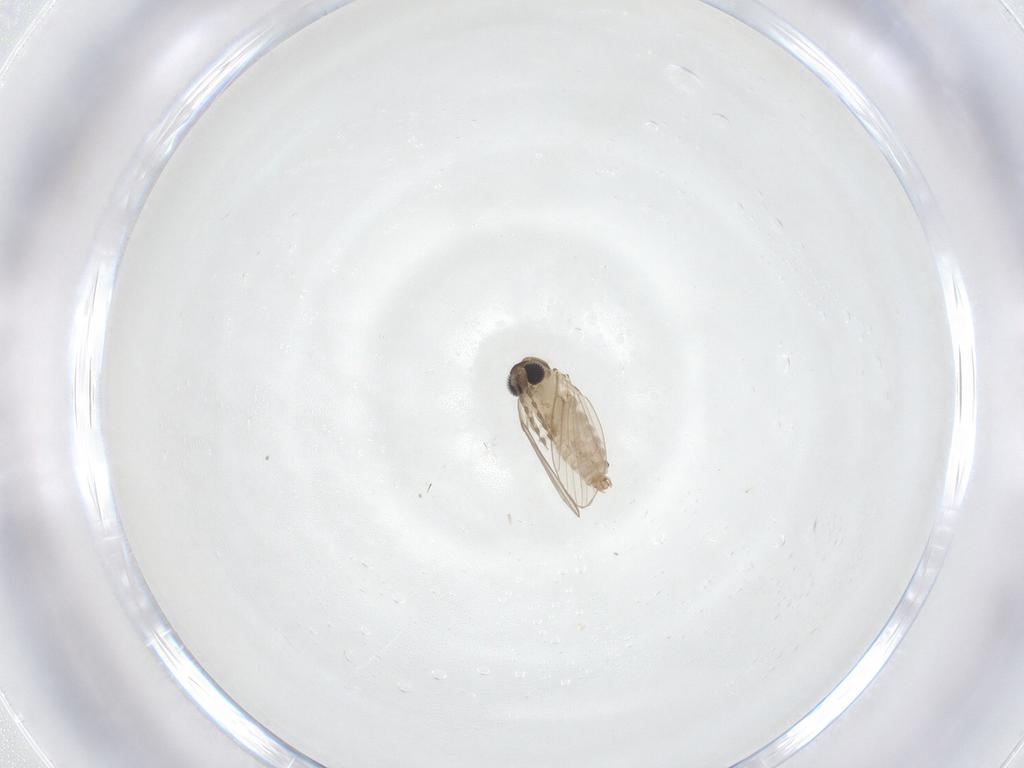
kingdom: Animalia
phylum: Arthropoda
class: Insecta
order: Diptera
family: Psychodidae
